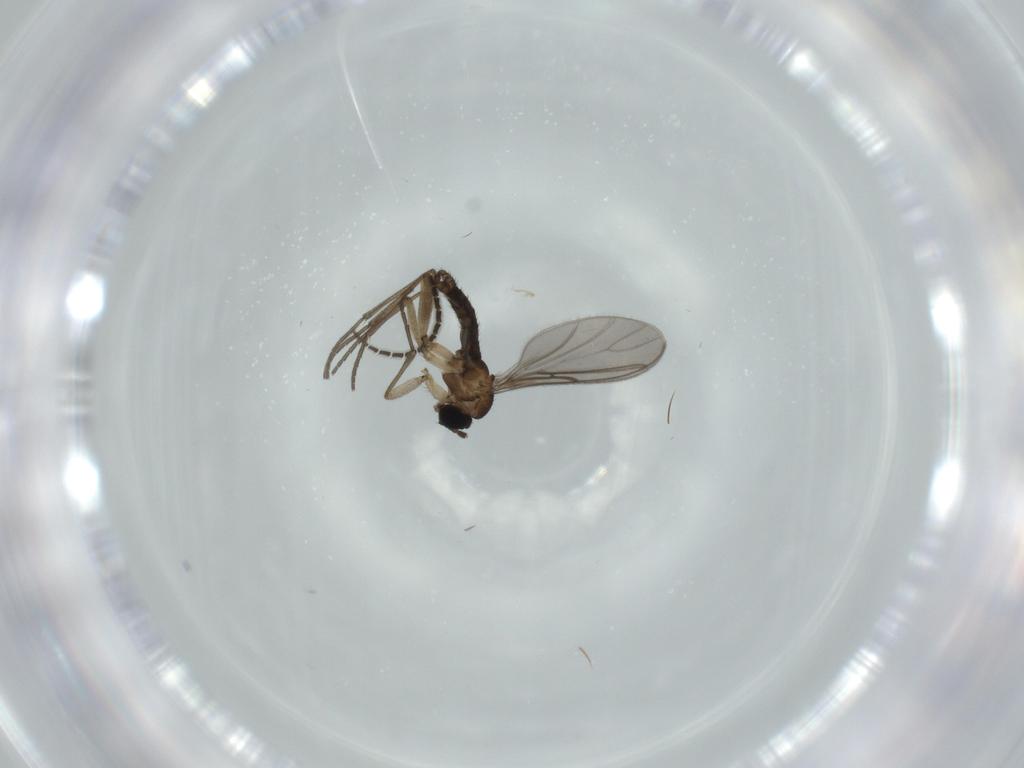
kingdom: Animalia
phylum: Arthropoda
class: Insecta
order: Diptera
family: Sciaridae
